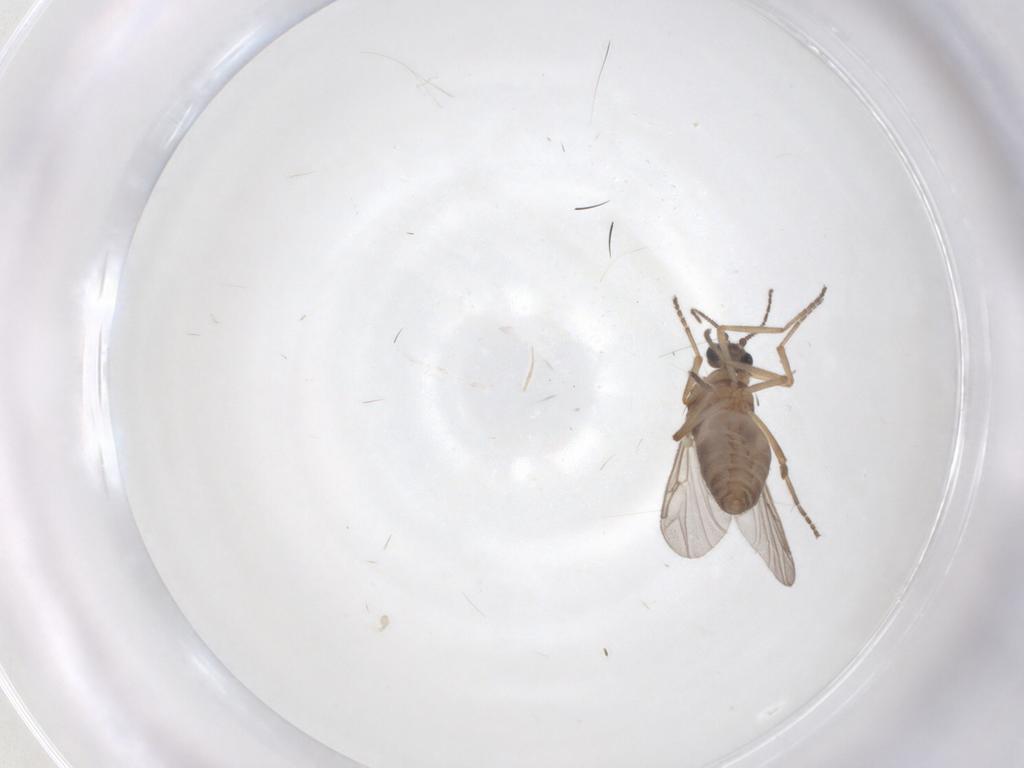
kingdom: Animalia
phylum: Arthropoda
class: Insecta
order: Diptera
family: Ceratopogonidae
